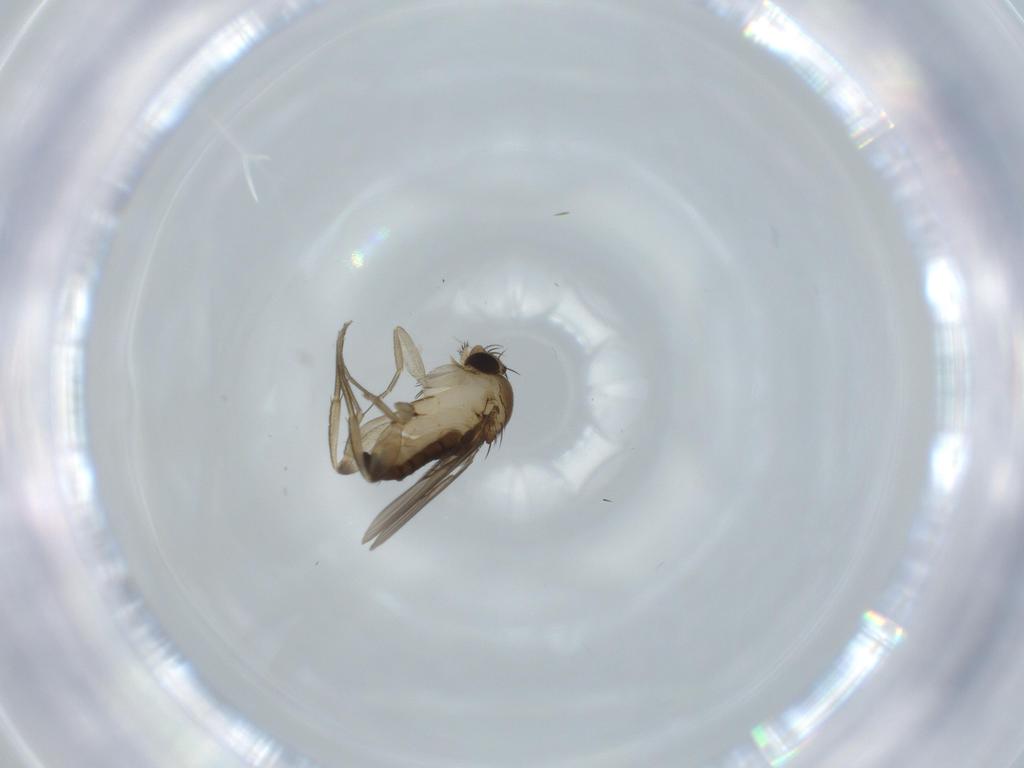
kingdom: Animalia
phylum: Arthropoda
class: Insecta
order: Diptera
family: Phoridae
